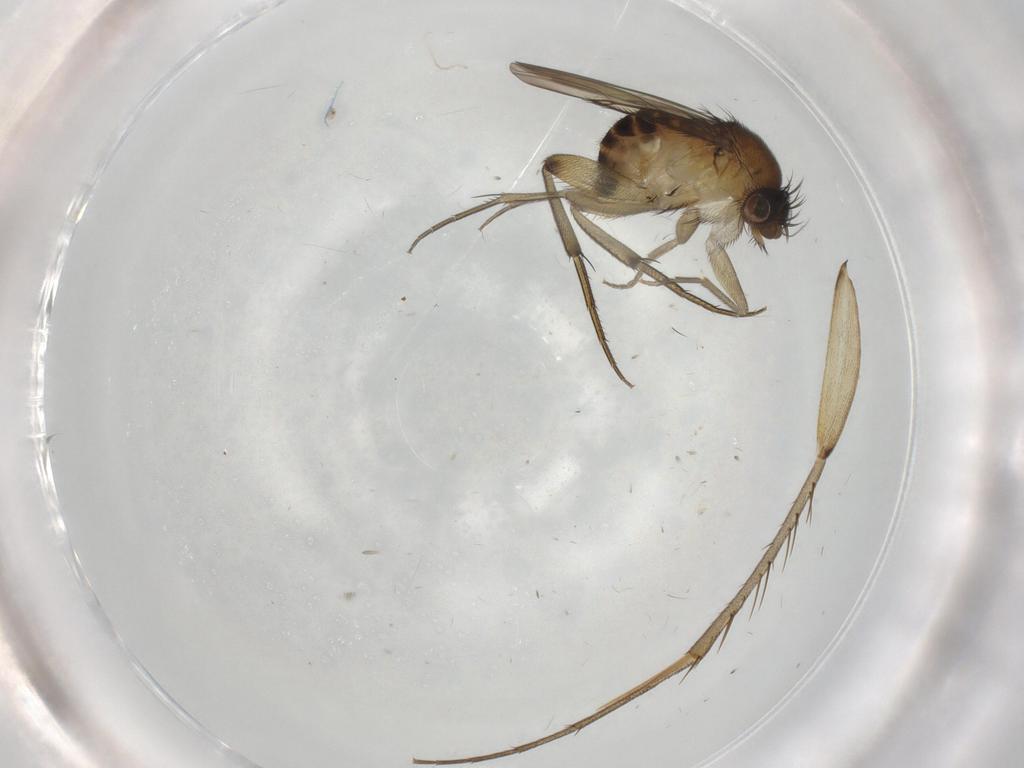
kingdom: Animalia
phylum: Arthropoda
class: Insecta
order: Diptera
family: Phoridae
